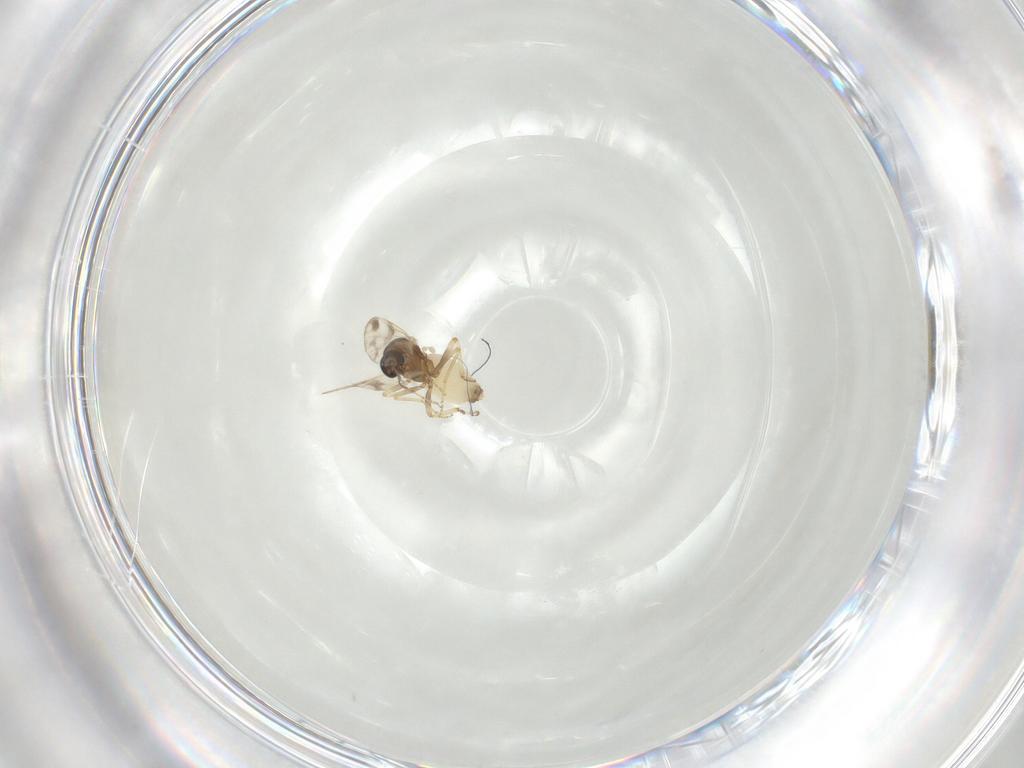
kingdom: Animalia
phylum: Arthropoda
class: Insecta
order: Diptera
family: Ceratopogonidae
